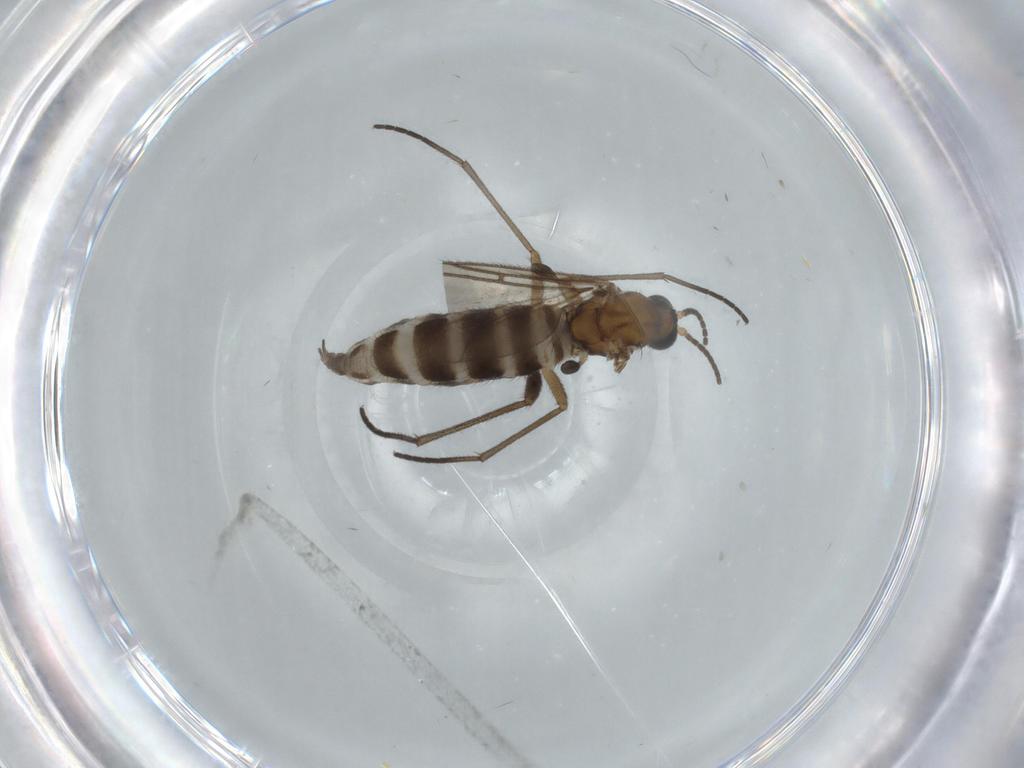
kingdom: Animalia
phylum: Arthropoda
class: Insecta
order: Diptera
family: Sciaridae
